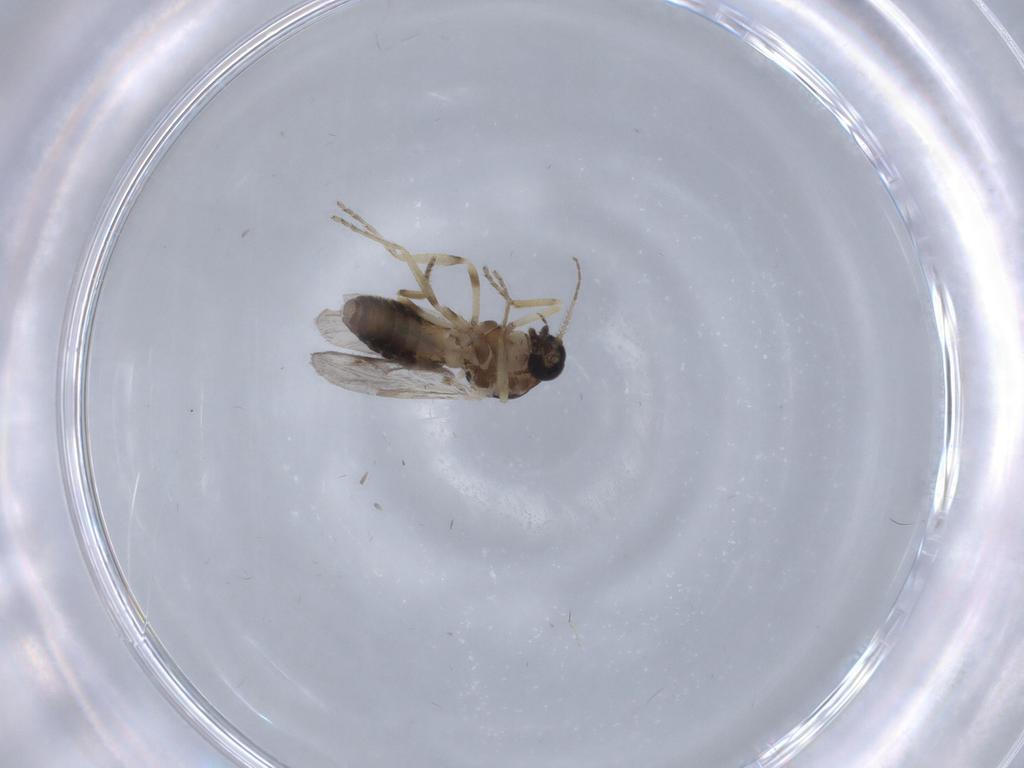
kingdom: Animalia
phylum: Arthropoda
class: Insecta
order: Diptera
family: Ceratopogonidae
